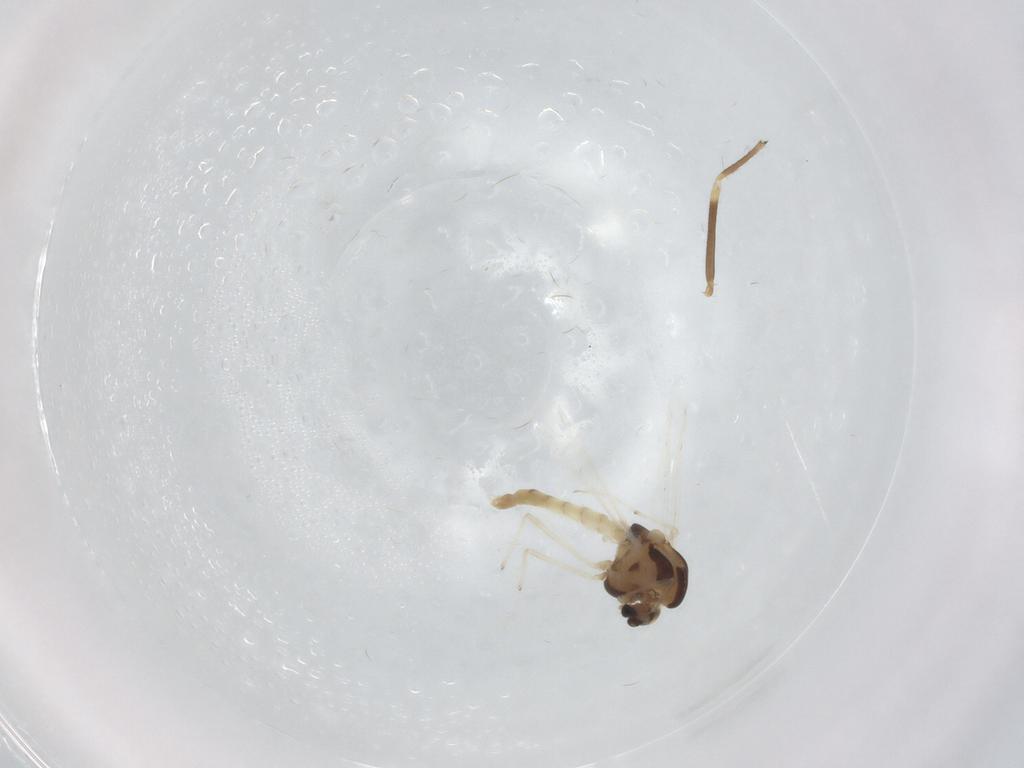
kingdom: Animalia
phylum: Arthropoda
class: Insecta
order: Diptera
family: Chironomidae
